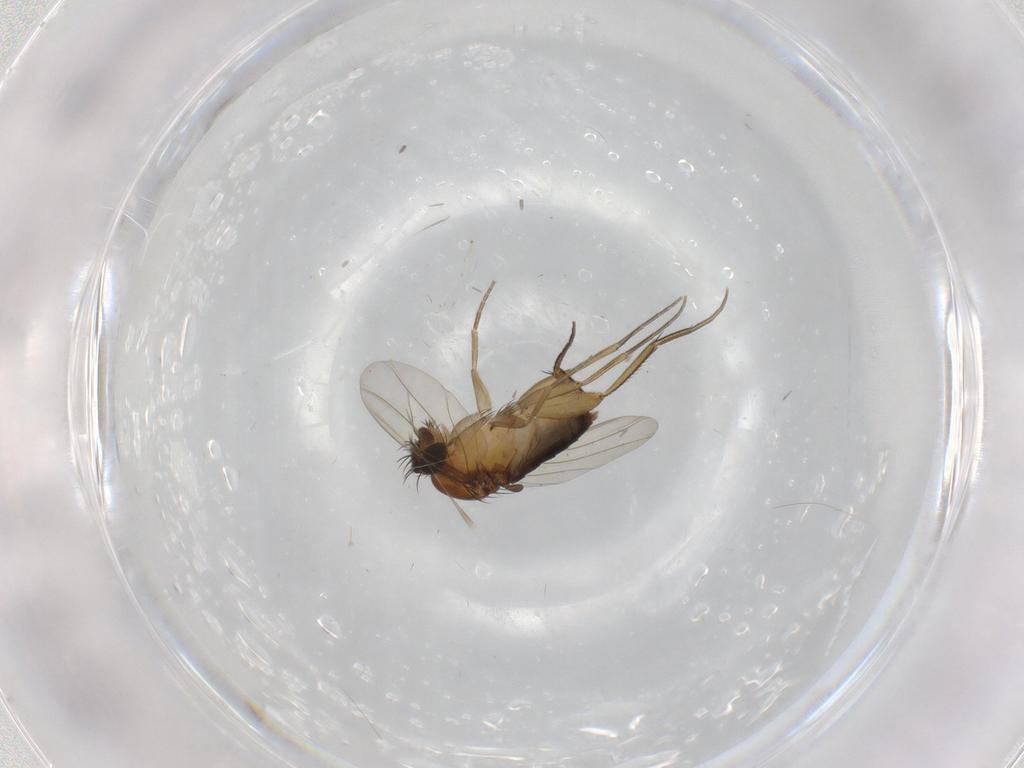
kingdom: Animalia
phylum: Arthropoda
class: Insecta
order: Diptera
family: Phoridae
